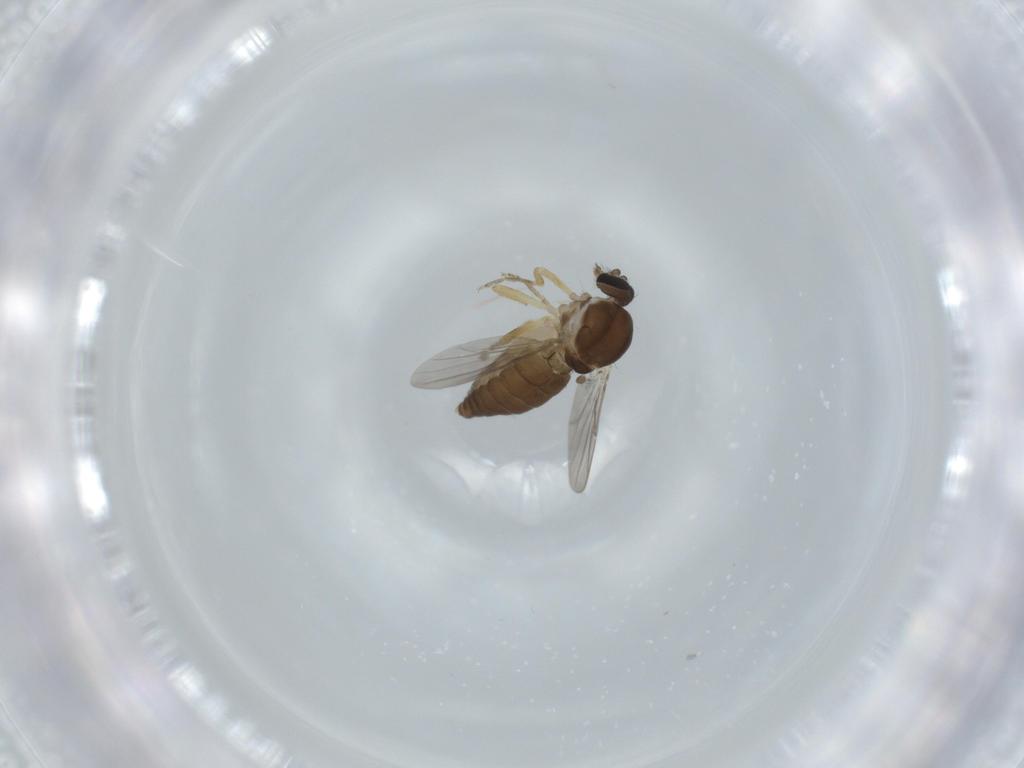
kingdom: Animalia
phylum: Arthropoda
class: Insecta
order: Diptera
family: Ceratopogonidae
